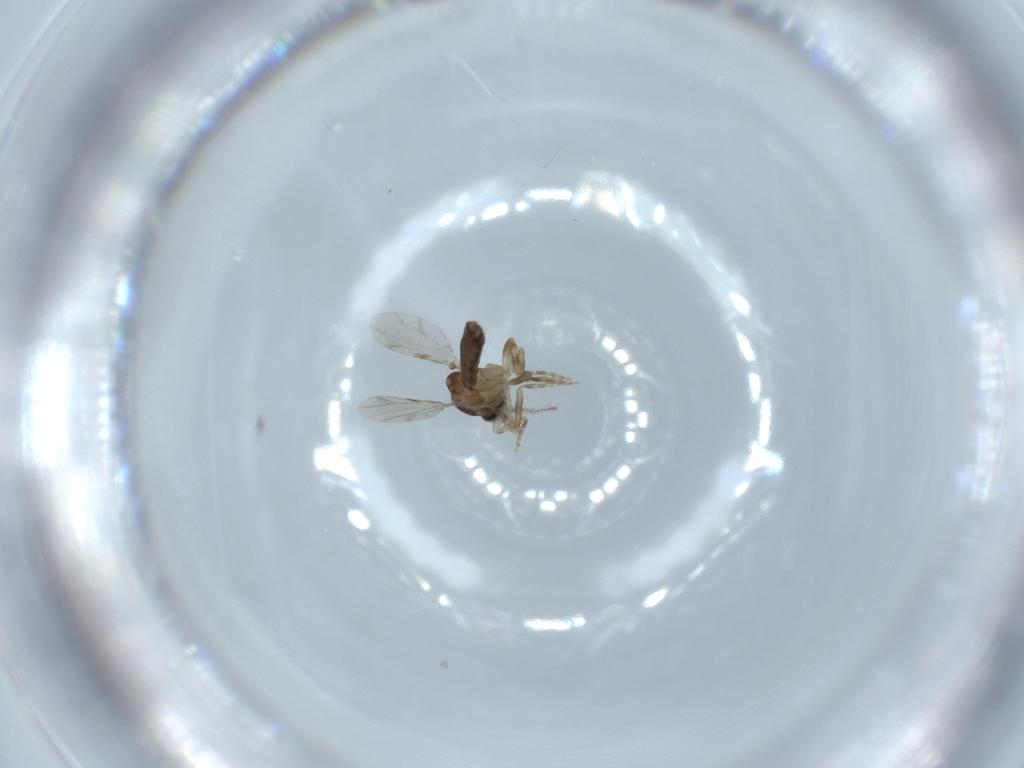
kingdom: Animalia
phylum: Arthropoda
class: Insecta
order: Diptera
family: Ceratopogonidae
